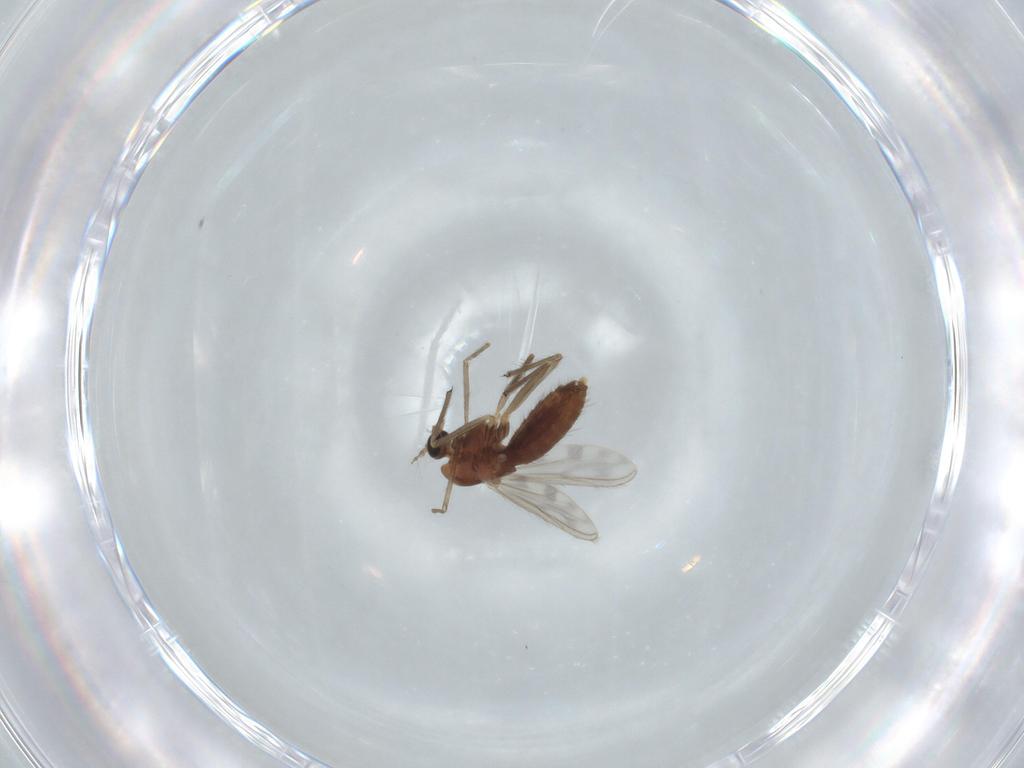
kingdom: Animalia
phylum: Arthropoda
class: Insecta
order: Diptera
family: Chironomidae
